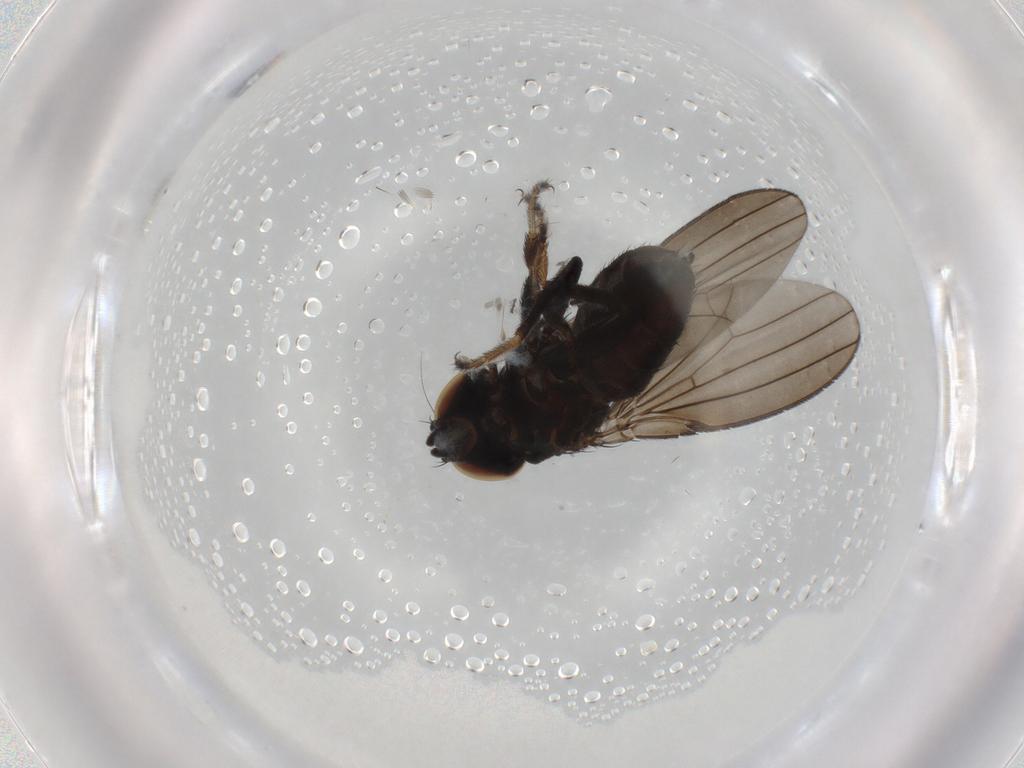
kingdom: Animalia
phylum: Arthropoda
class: Insecta
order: Diptera
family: Milichiidae
